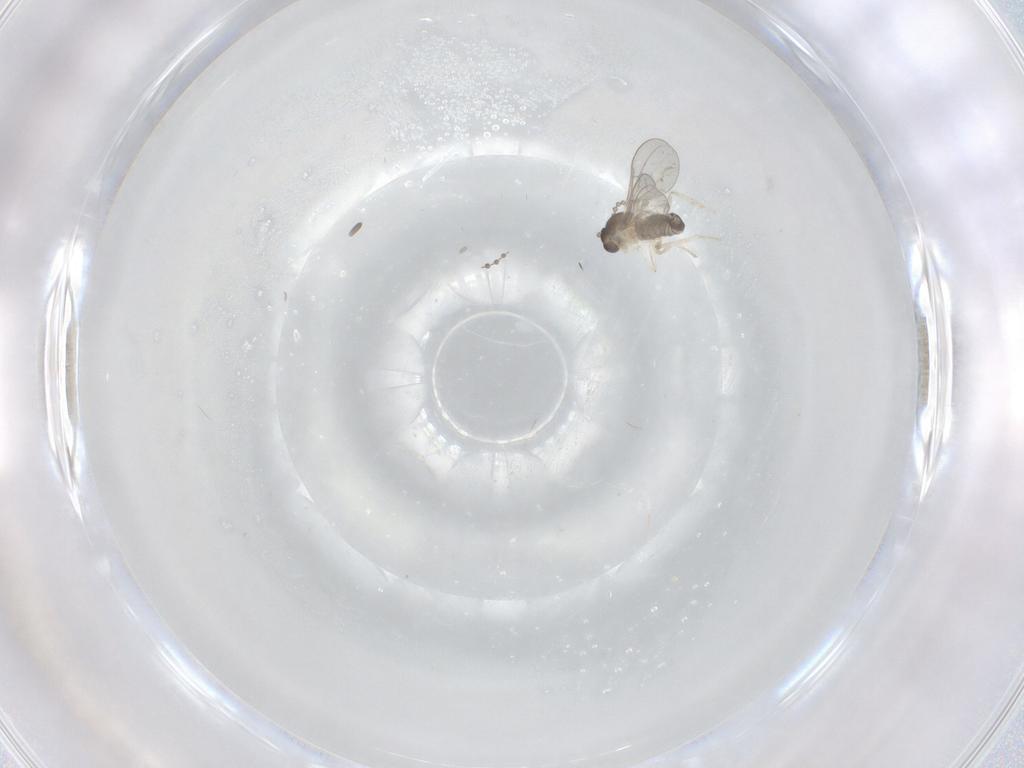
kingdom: Animalia
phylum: Arthropoda
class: Insecta
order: Diptera
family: Cecidomyiidae
